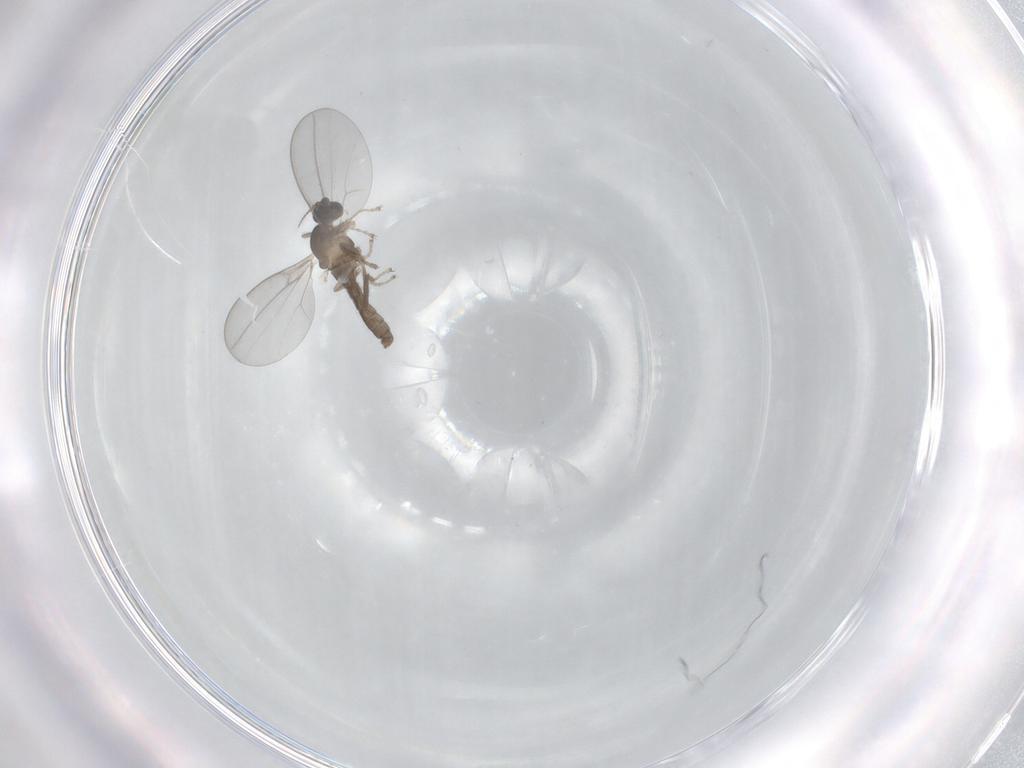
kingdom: Animalia
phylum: Arthropoda
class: Insecta
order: Diptera
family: Cecidomyiidae
